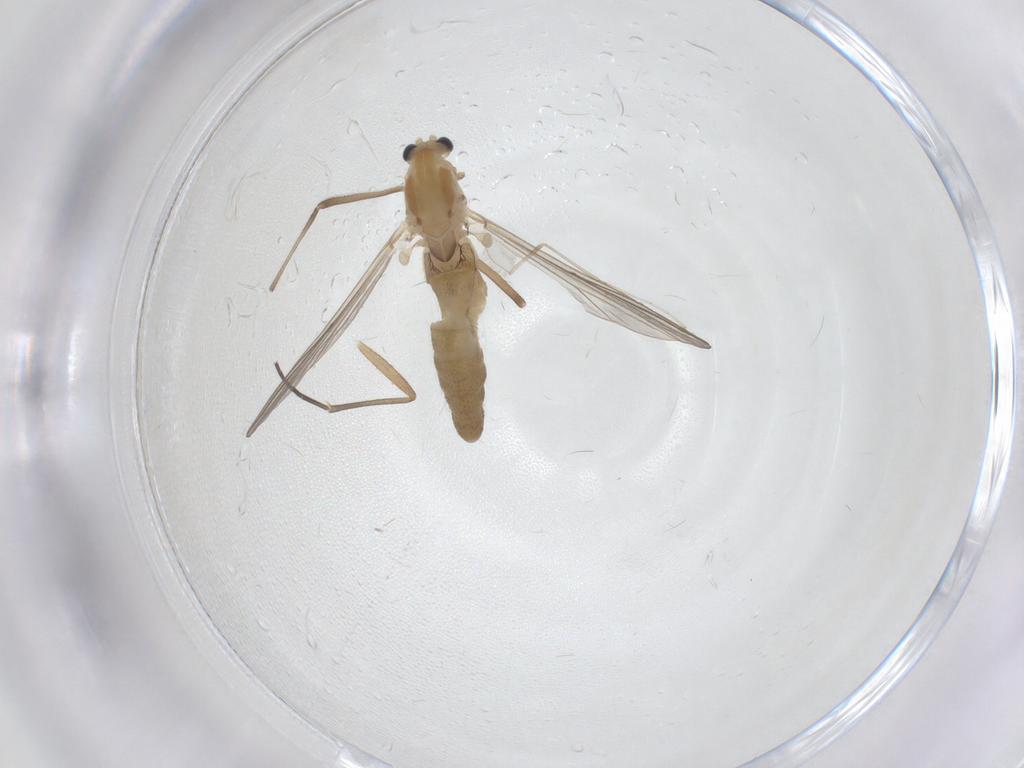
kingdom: Animalia
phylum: Arthropoda
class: Insecta
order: Diptera
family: Chironomidae
